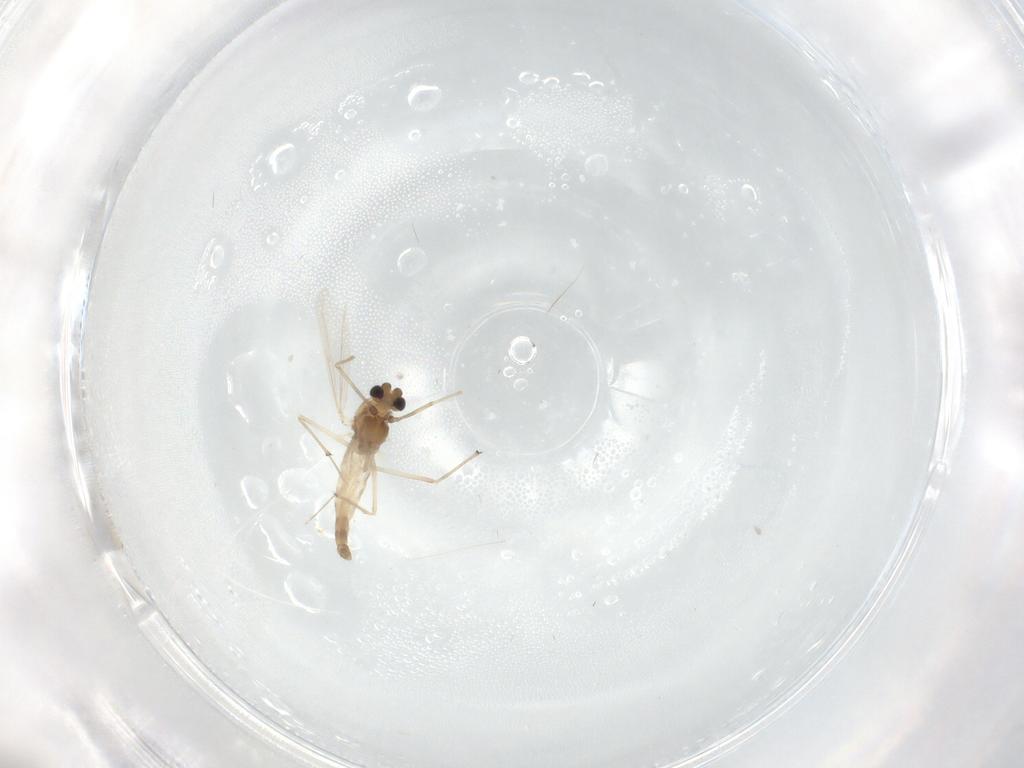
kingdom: Animalia
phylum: Arthropoda
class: Insecta
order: Diptera
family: Chironomidae
